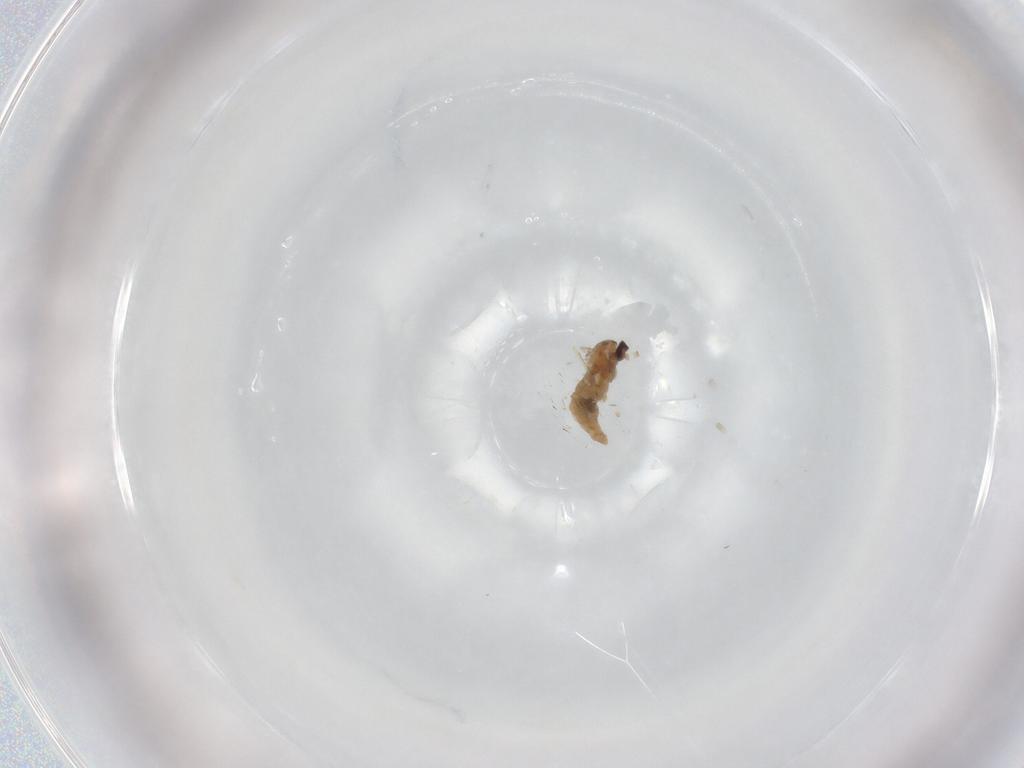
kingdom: Animalia
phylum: Arthropoda
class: Insecta
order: Diptera
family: Cecidomyiidae
